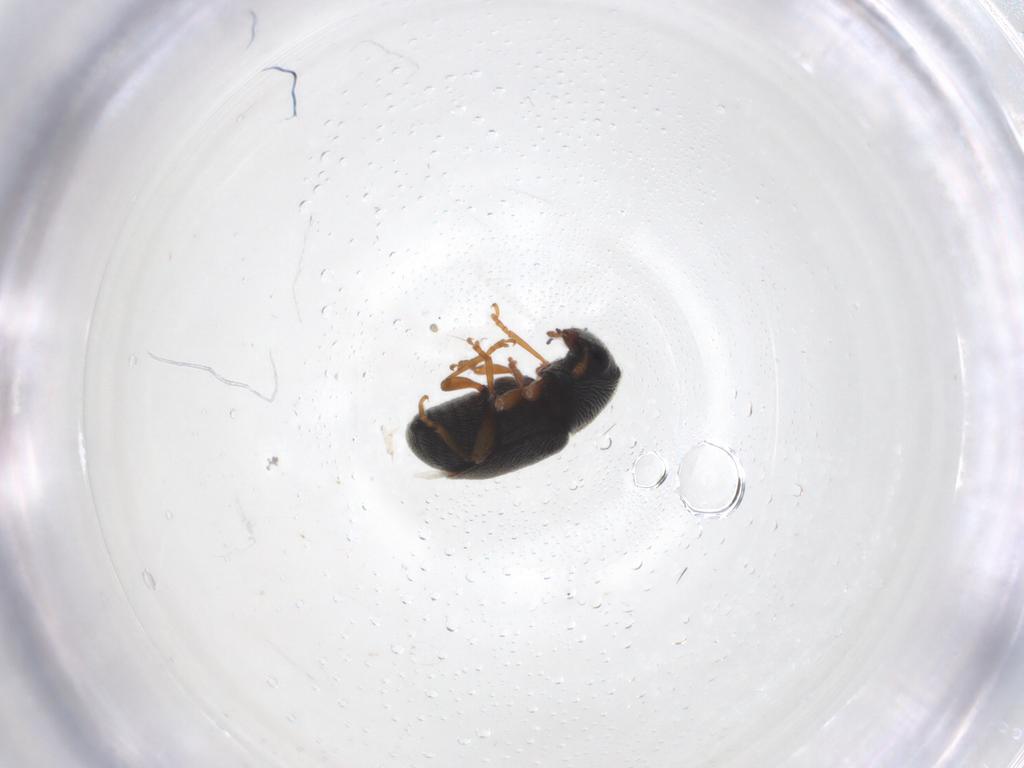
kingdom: Animalia
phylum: Arthropoda
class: Insecta
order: Coleoptera
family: Anthribidae
